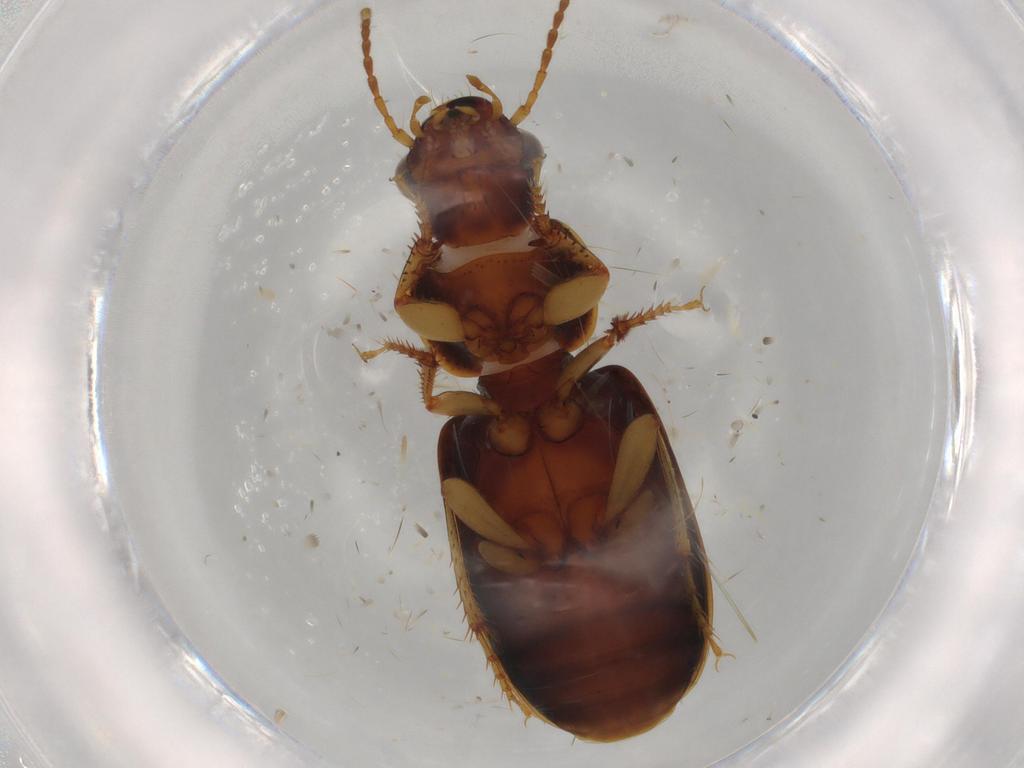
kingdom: Animalia
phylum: Arthropoda
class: Insecta
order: Coleoptera
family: Carabidae
